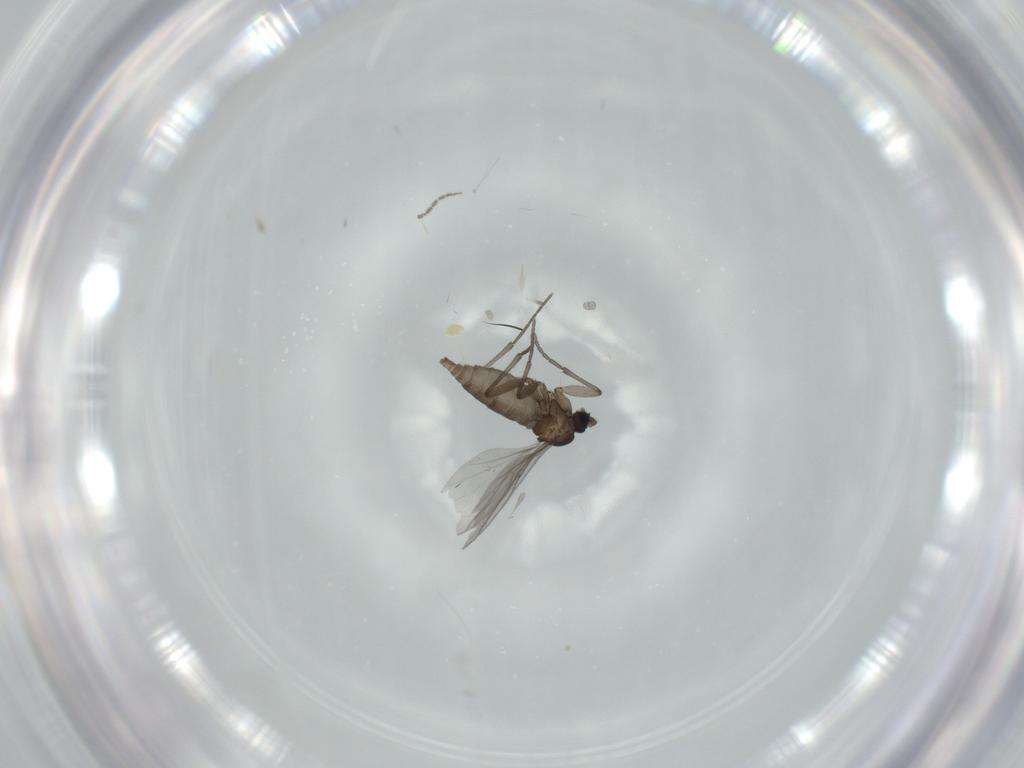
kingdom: Animalia
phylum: Arthropoda
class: Insecta
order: Diptera
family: Sciaridae
